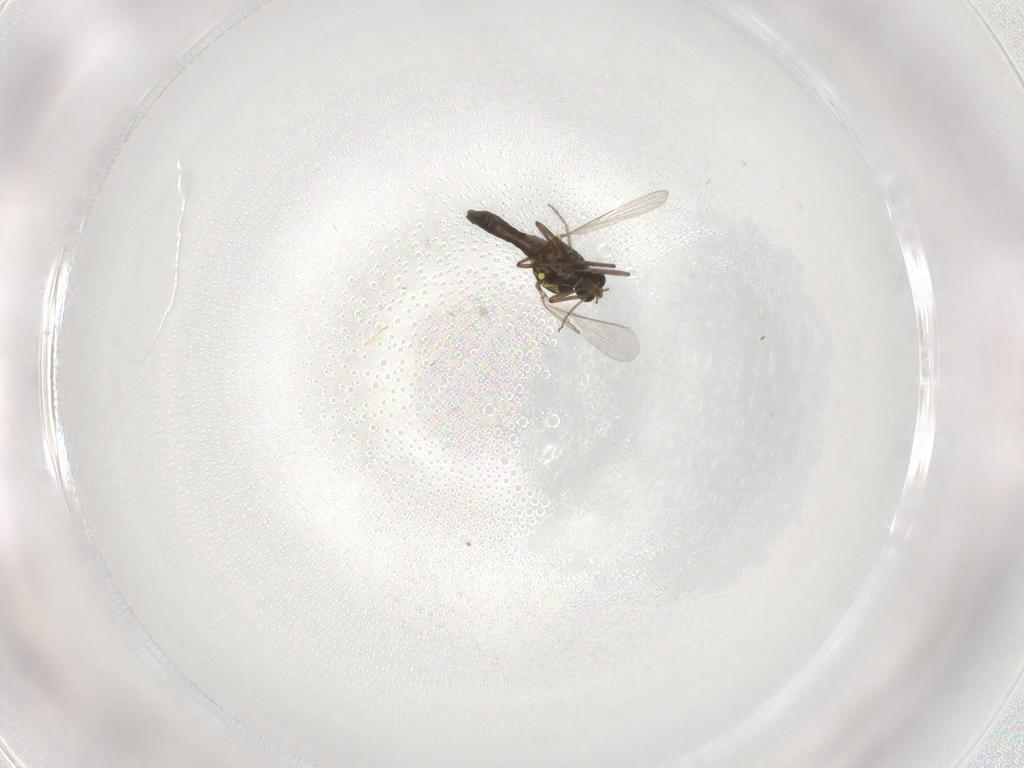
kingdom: Animalia
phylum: Arthropoda
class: Insecta
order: Diptera
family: Ceratopogonidae
